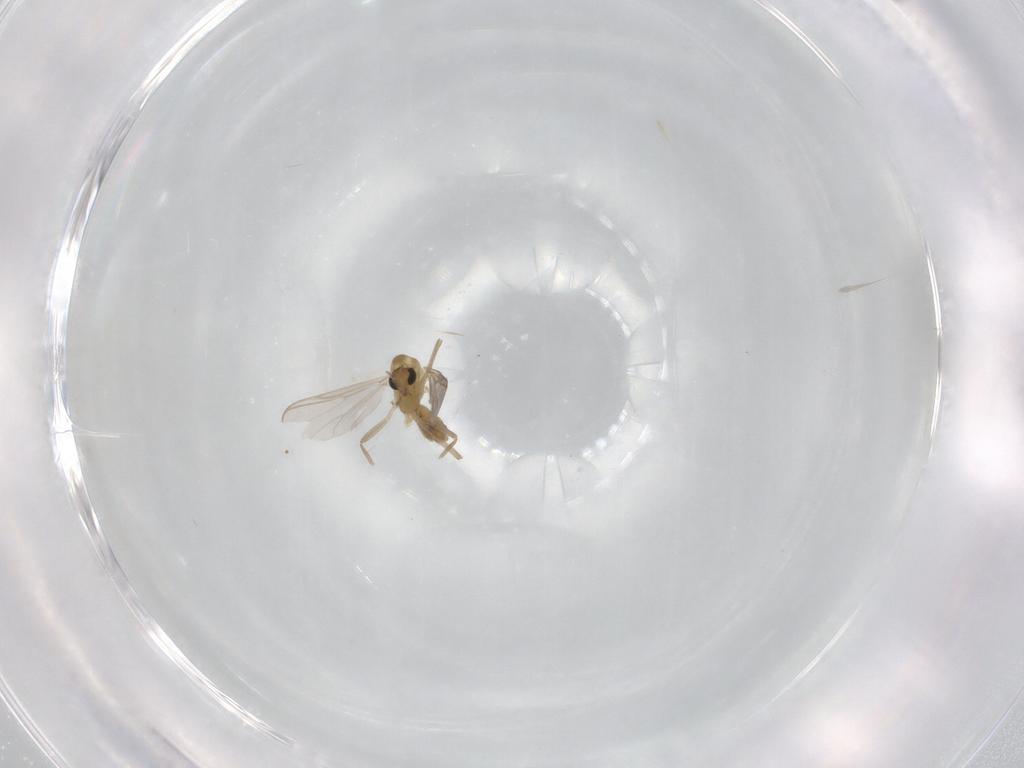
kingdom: Animalia
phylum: Arthropoda
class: Insecta
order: Diptera
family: Chironomidae
